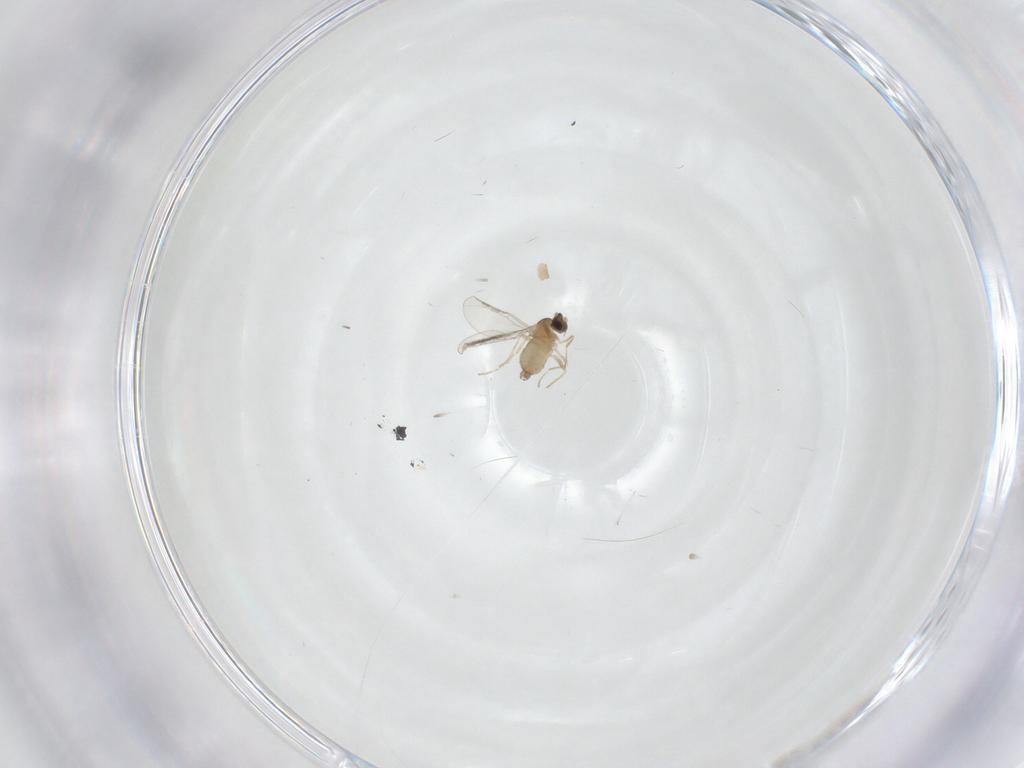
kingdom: Animalia
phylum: Arthropoda
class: Insecta
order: Diptera
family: Cecidomyiidae
